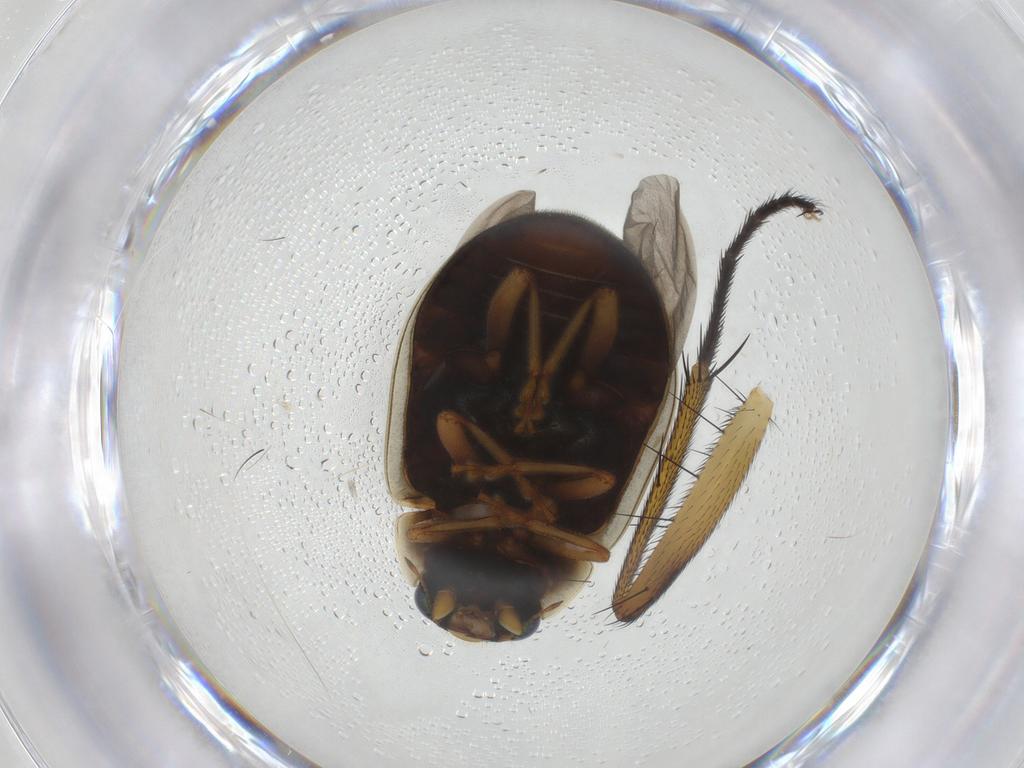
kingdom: Animalia
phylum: Arthropoda
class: Insecta
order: Coleoptera
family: Coccinellidae
